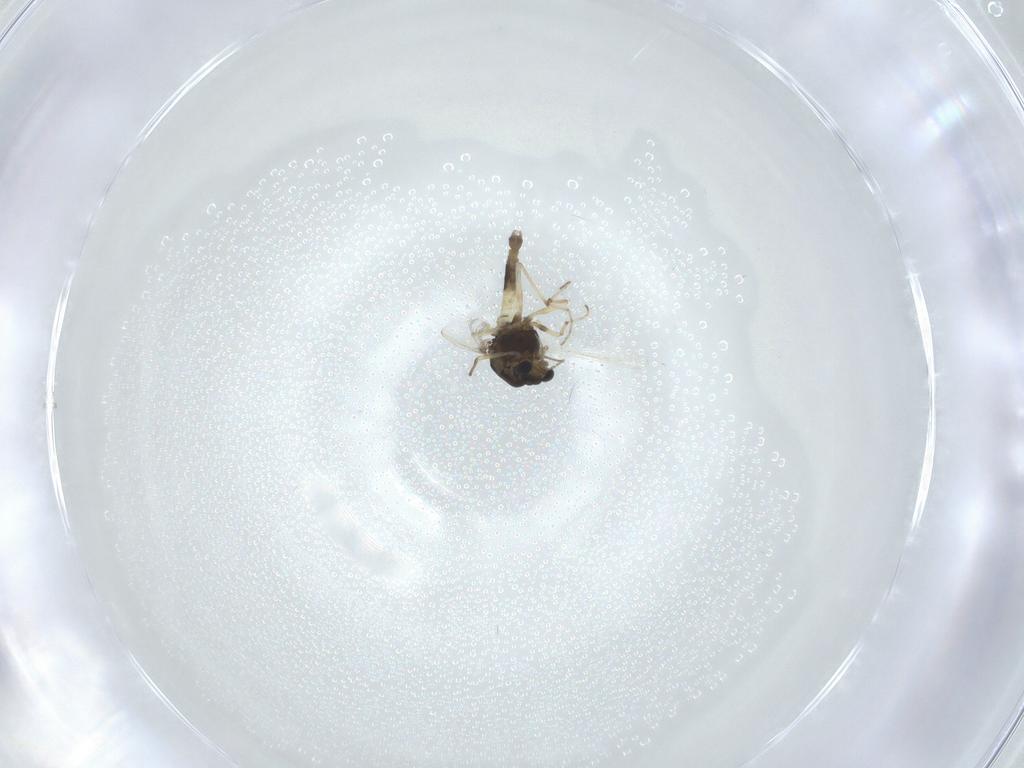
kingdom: Animalia
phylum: Arthropoda
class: Insecta
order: Diptera
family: Chironomidae
